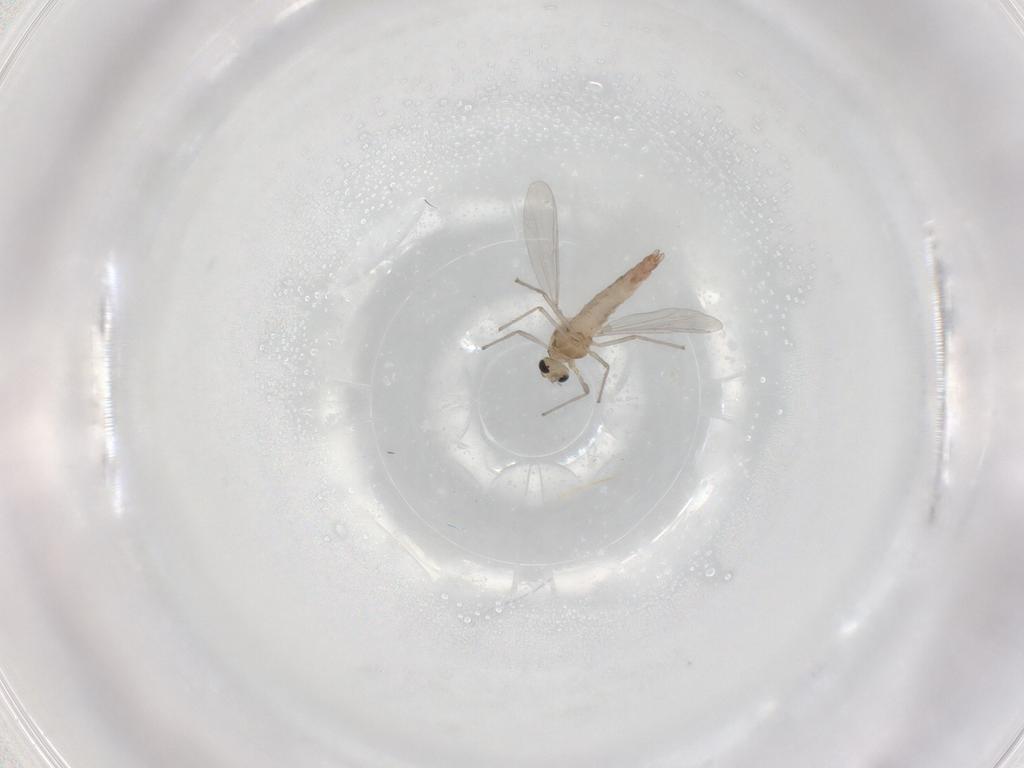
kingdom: Animalia
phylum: Arthropoda
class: Insecta
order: Diptera
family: Chironomidae
